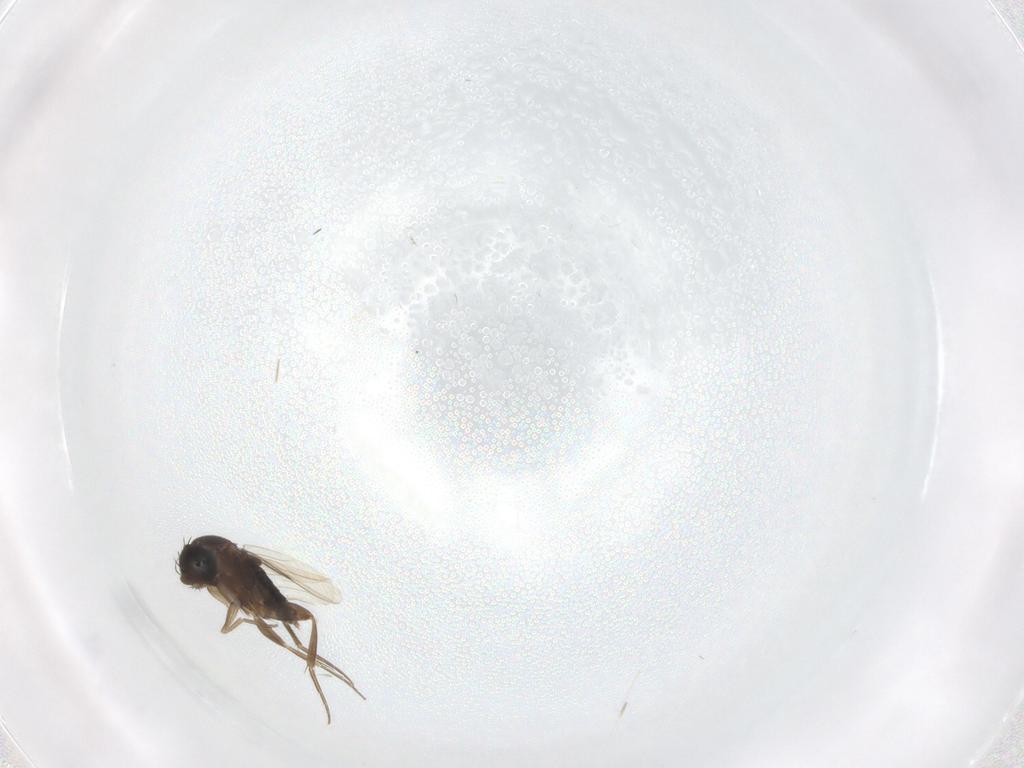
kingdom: Animalia
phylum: Arthropoda
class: Insecta
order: Diptera
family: Phoridae
